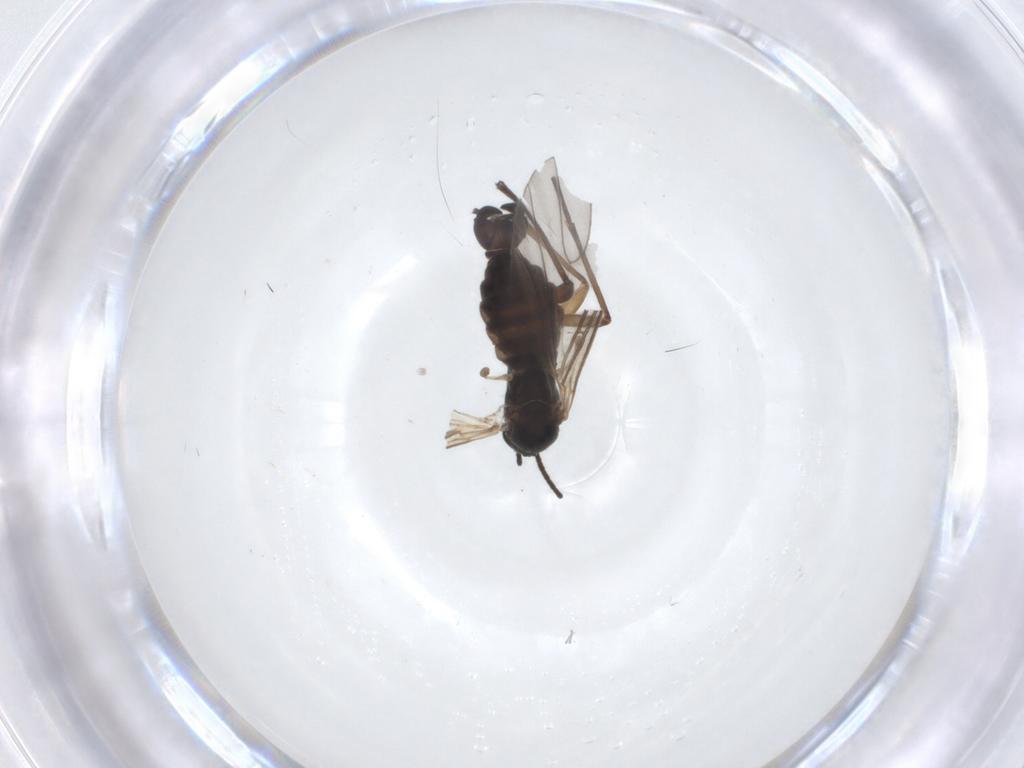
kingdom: Animalia
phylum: Arthropoda
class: Insecta
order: Diptera
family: Sciaridae
